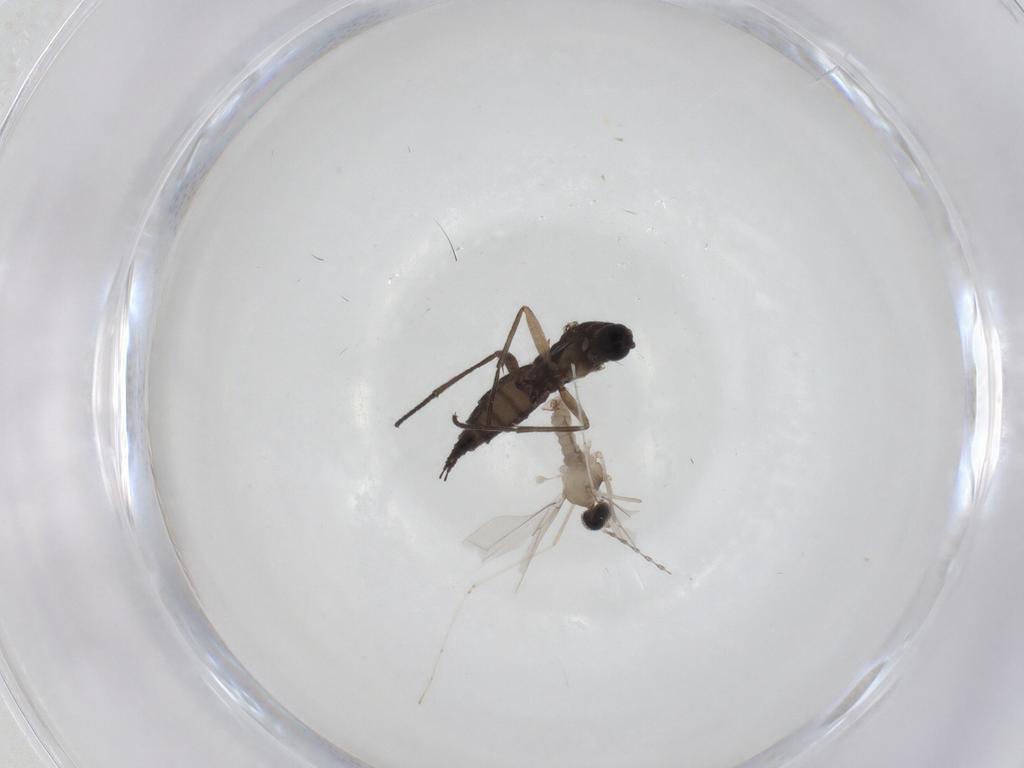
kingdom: Animalia
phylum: Arthropoda
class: Insecta
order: Diptera
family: Cecidomyiidae
